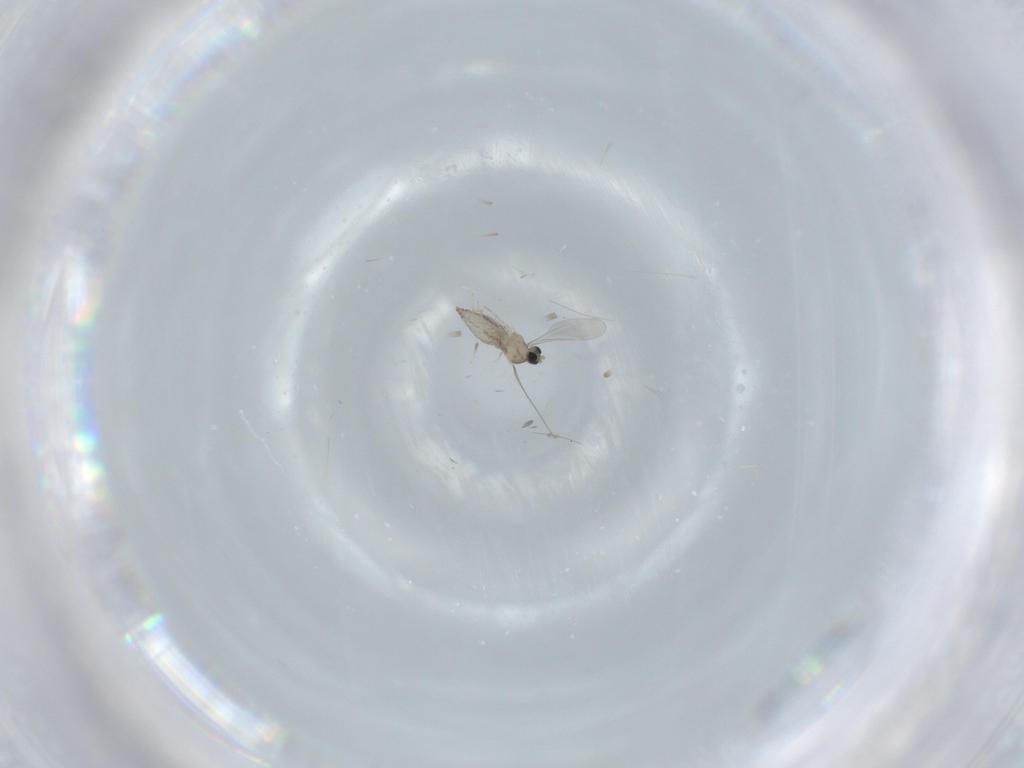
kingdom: Animalia
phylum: Arthropoda
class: Insecta
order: Diptera
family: Cecidomyiidae
